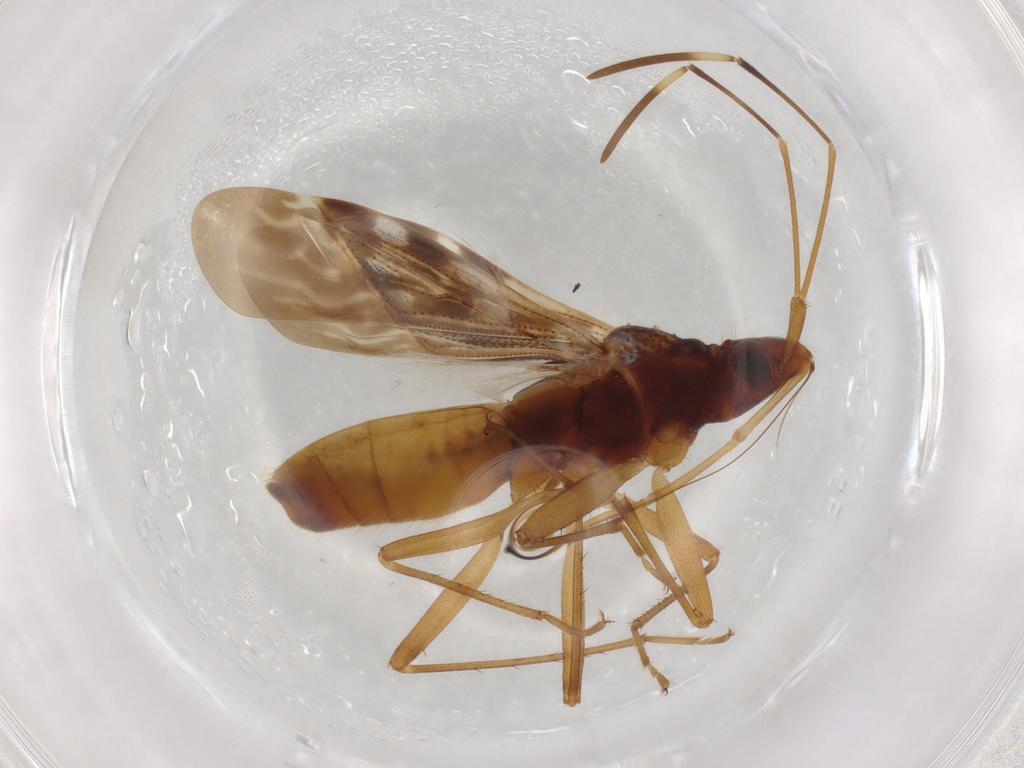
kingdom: Animalia
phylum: Arthropoda
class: Insecta
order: Hemiptera
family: Rhyparochromidae
